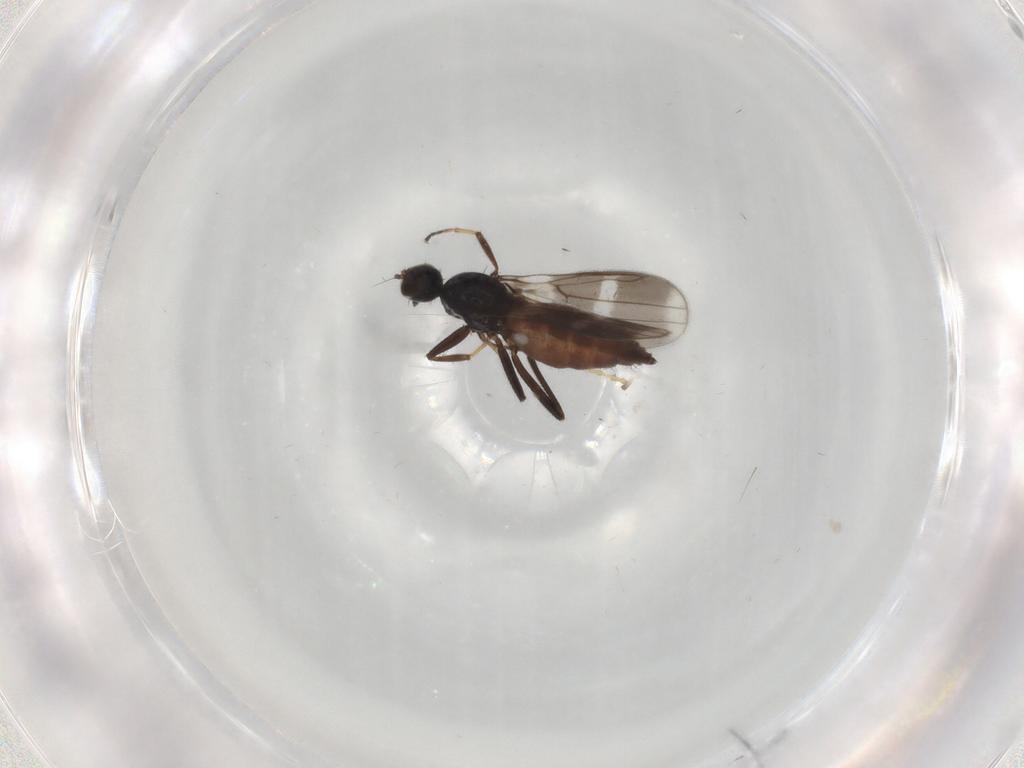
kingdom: Animalia
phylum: Arthropoda
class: Insecta
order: Diptera
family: Hybotidae
